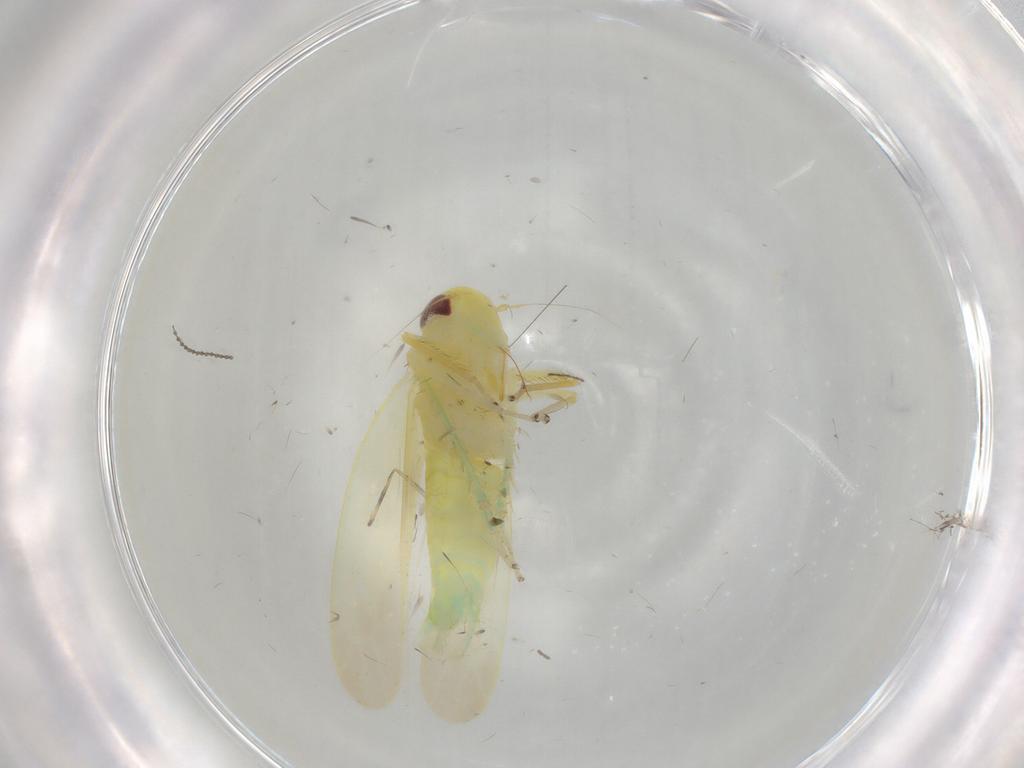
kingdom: Animalia
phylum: Arthropoda
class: Insecta
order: Hemiptera
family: Cicadellidae
